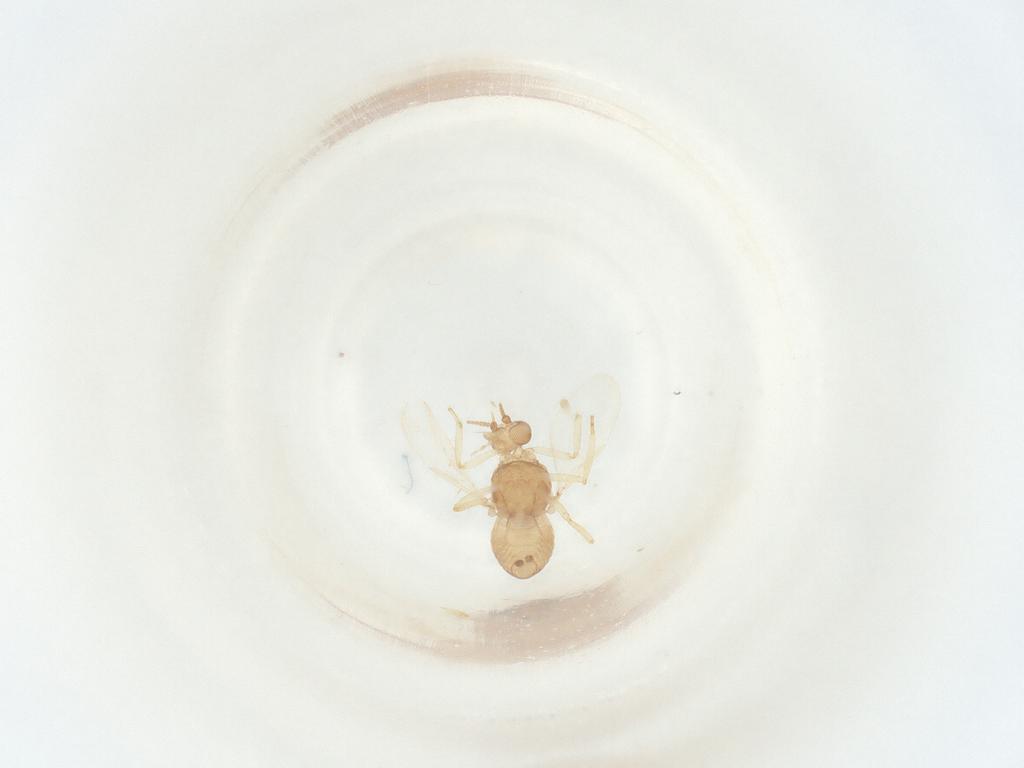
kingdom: Animalia
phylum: Arthropoda
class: Insecta
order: Diptera
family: Ceratopogonidae
